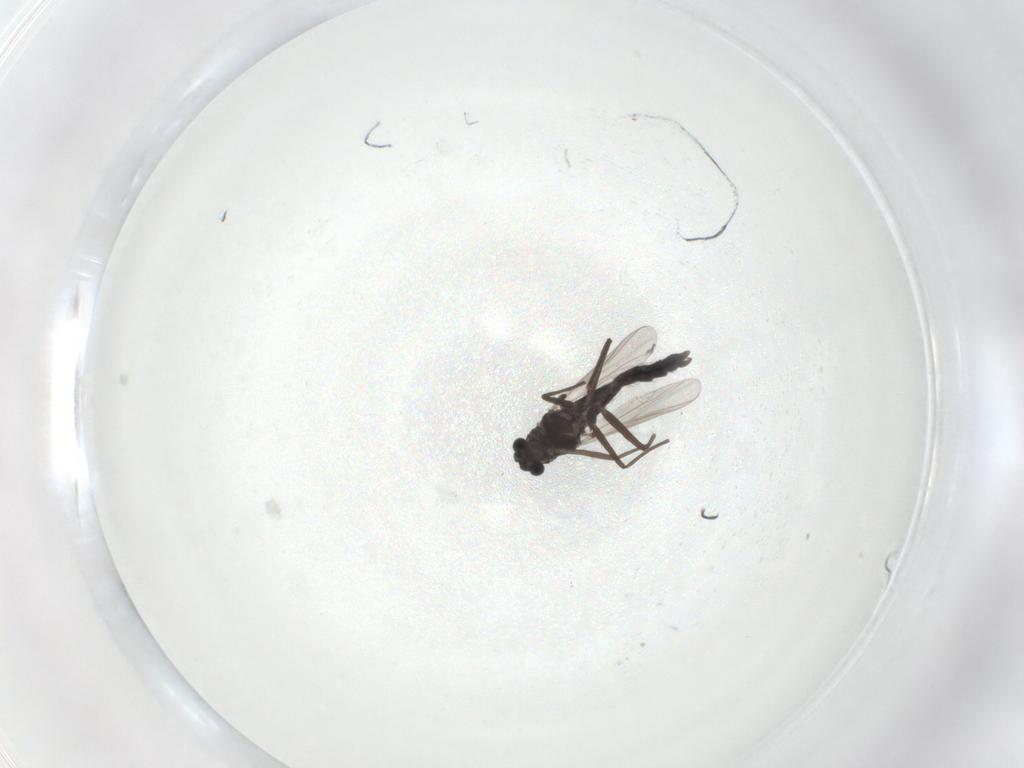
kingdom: Animalia
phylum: Arthropoda
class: Insecta
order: Diptera
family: Chironomidae
